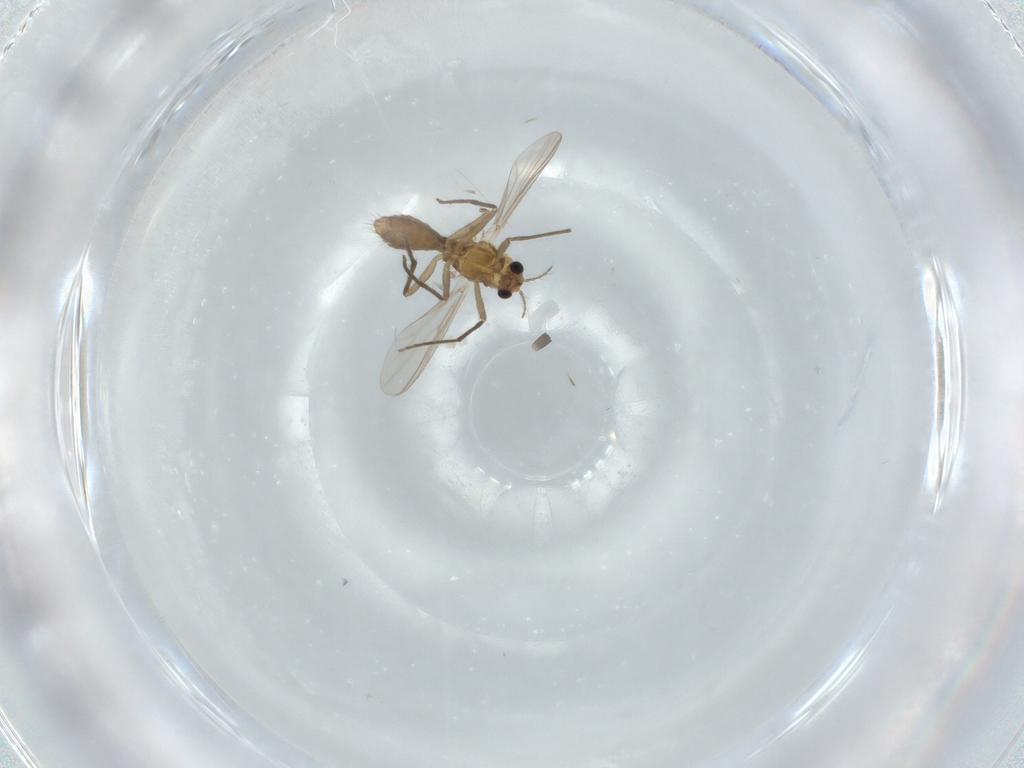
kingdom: Animalia
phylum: Arthropoda
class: Insecta
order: Diptera
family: Chironomidae
